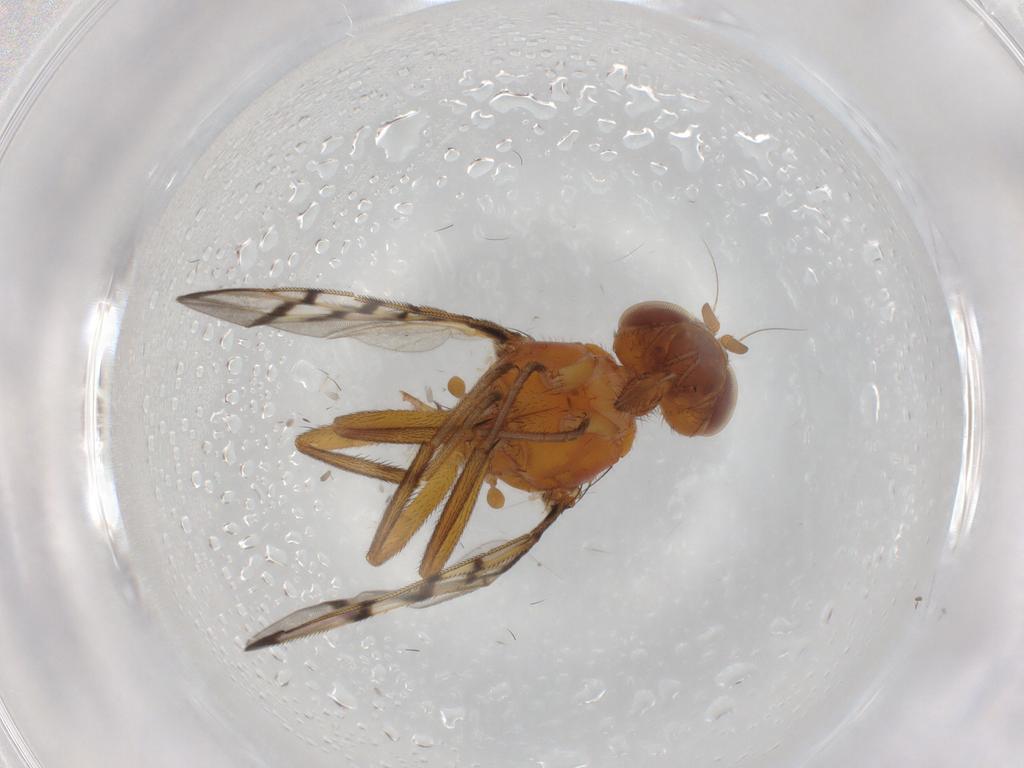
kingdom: Animalia
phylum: Arthropoda
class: Insecta
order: Diptera
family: Platystomatidae
